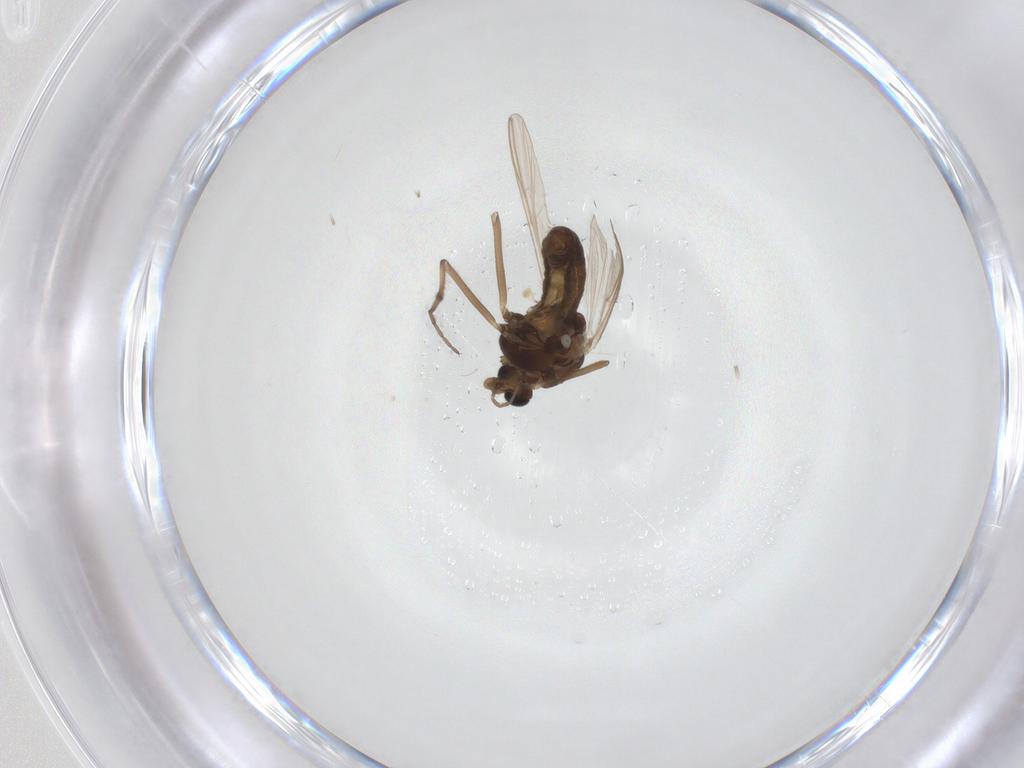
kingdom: Animalia
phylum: Arthropoda
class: Insecta
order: Diptera
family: Chironomidae
